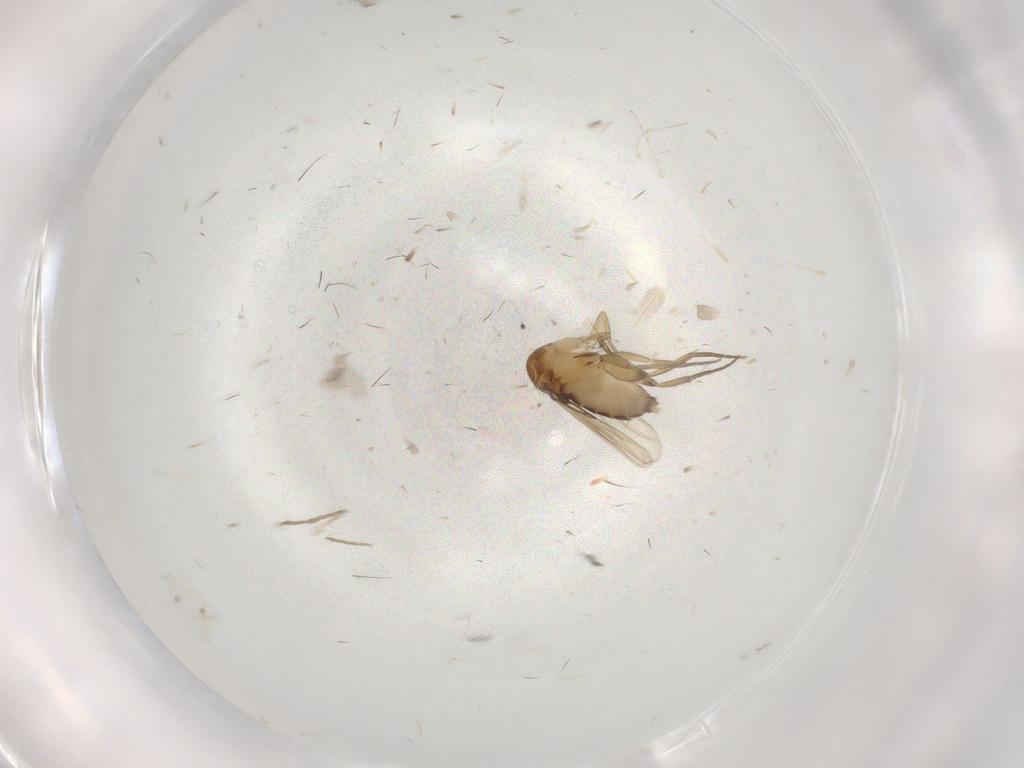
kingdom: Animalia
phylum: Arthropoda
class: Insecta
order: Diptera
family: Phoridae
